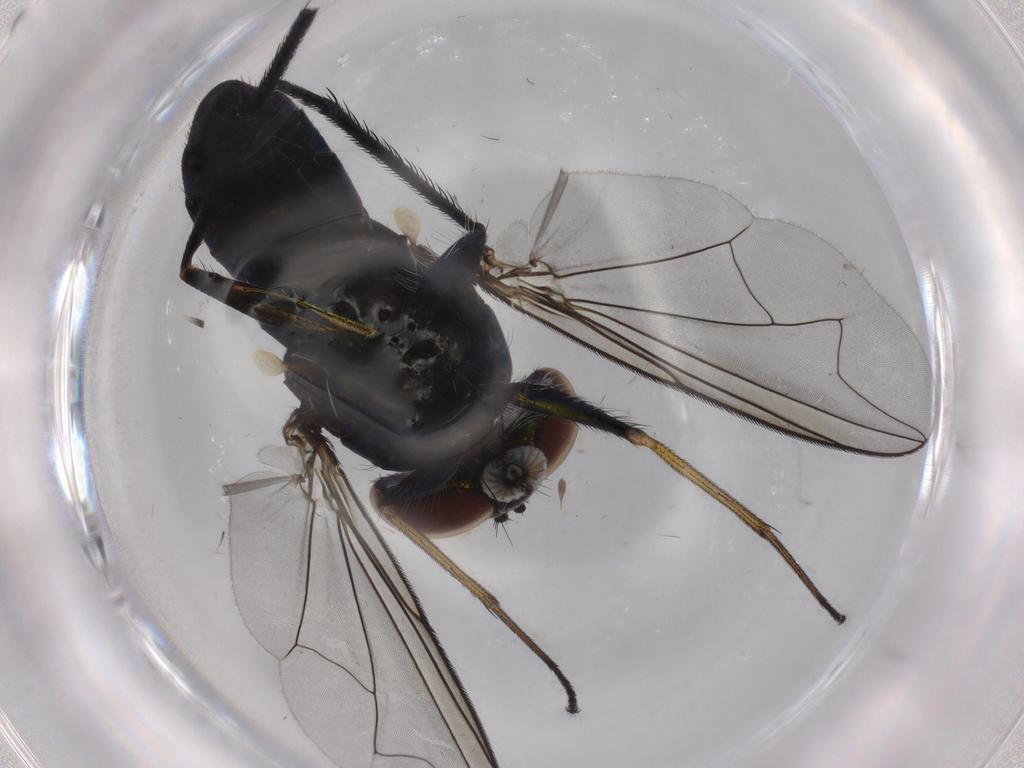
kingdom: Animalia
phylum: Arthropoda
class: Insecta
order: Diptera
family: Dolichopodidae
